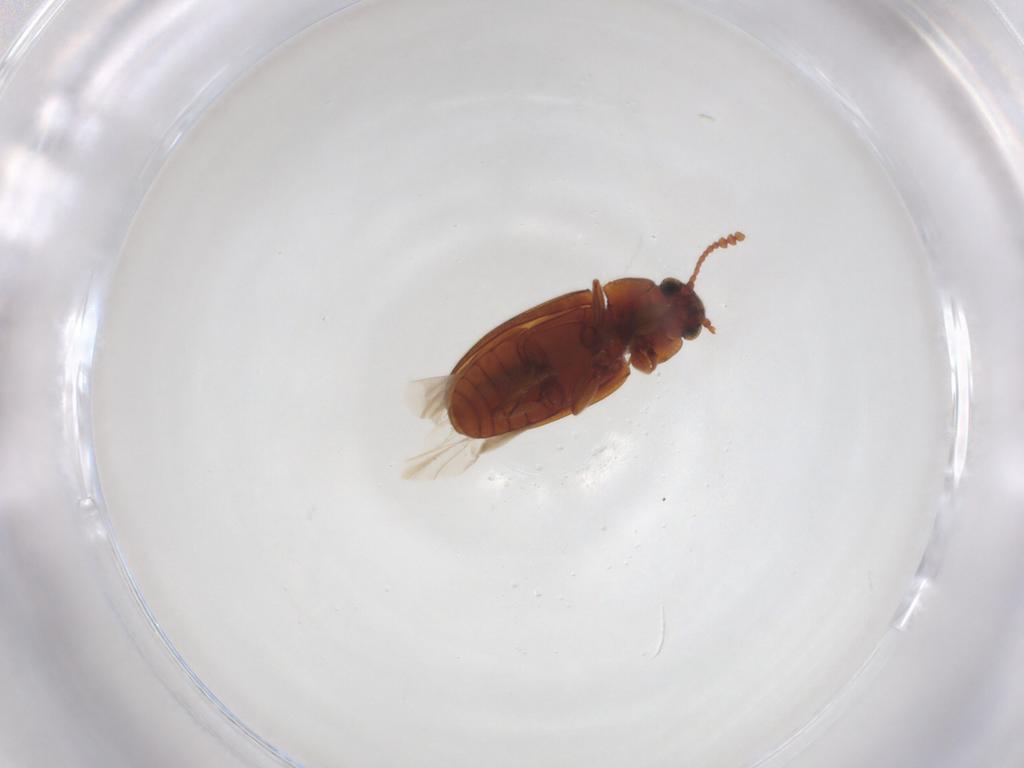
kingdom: Animalia
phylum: Arthropoda
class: Insecta
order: Coleoptera
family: Erotylidae
